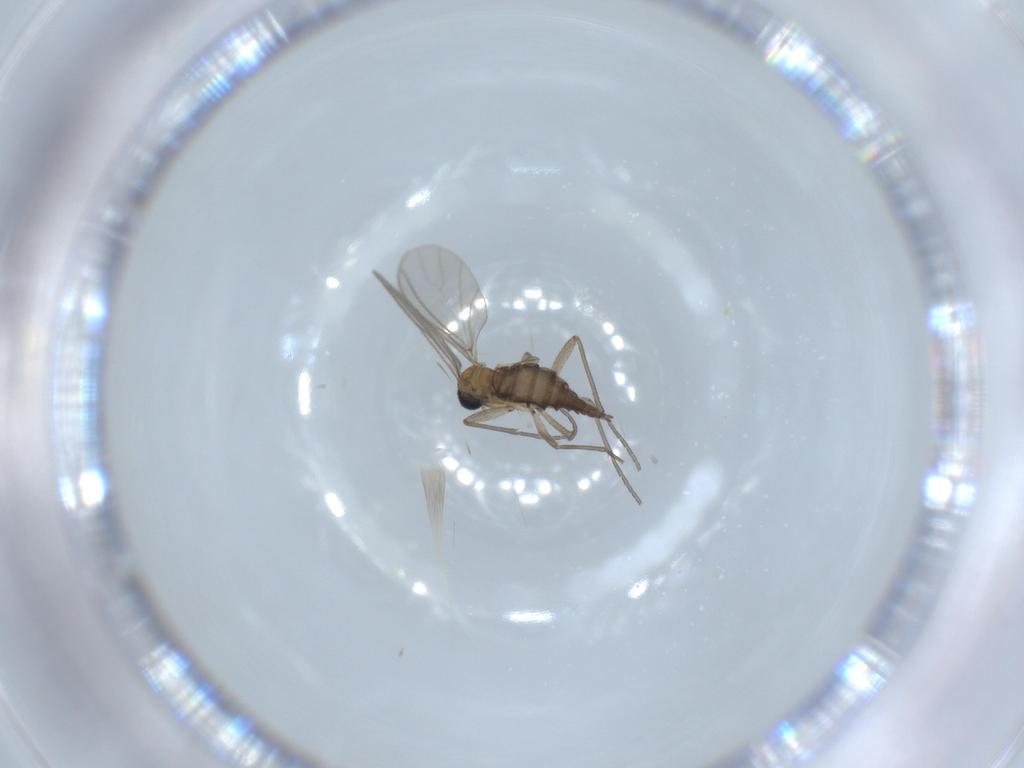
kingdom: Animalia
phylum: Arthropoda
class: Insecta
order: Diptera
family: Sciaridae
